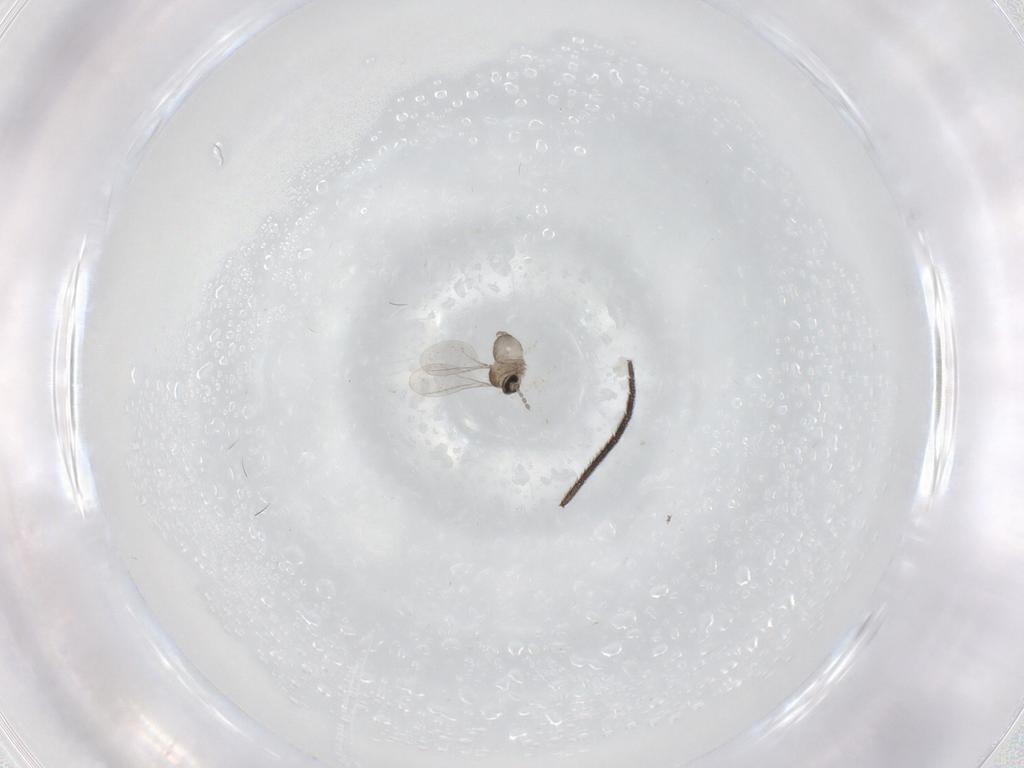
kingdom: Animalia
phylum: Arthropoda
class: Insecta
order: Diptera
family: Sciaridae
